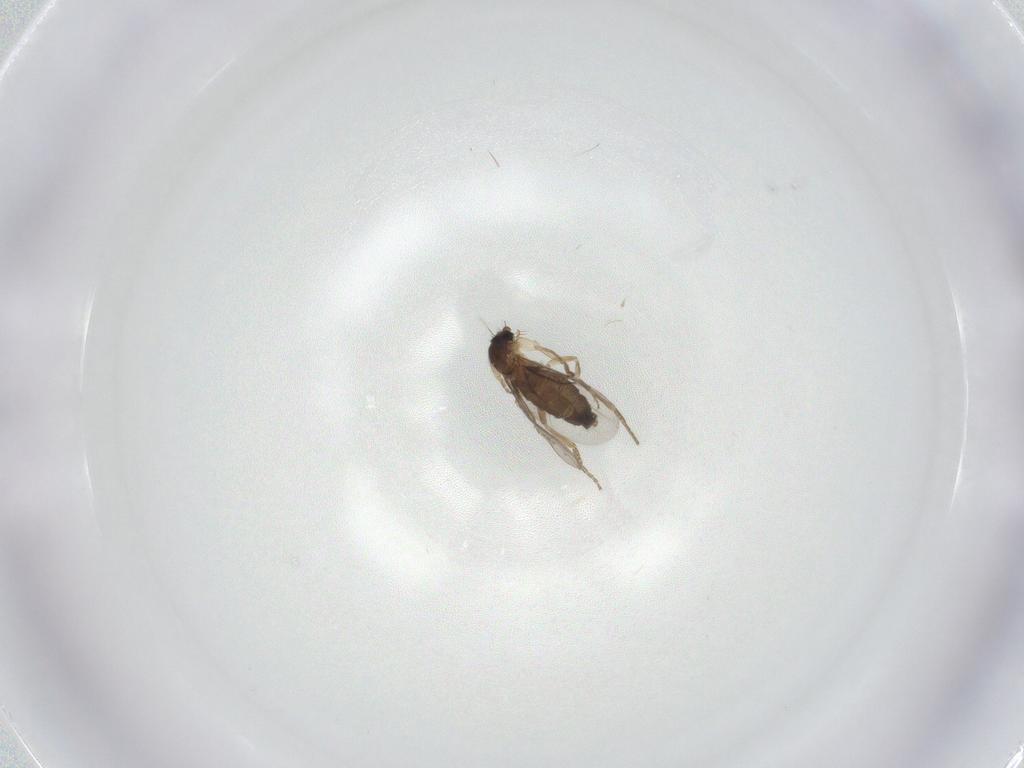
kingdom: Animalia
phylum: Arthropoda
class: Insecta
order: Diptera
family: Phoridae
